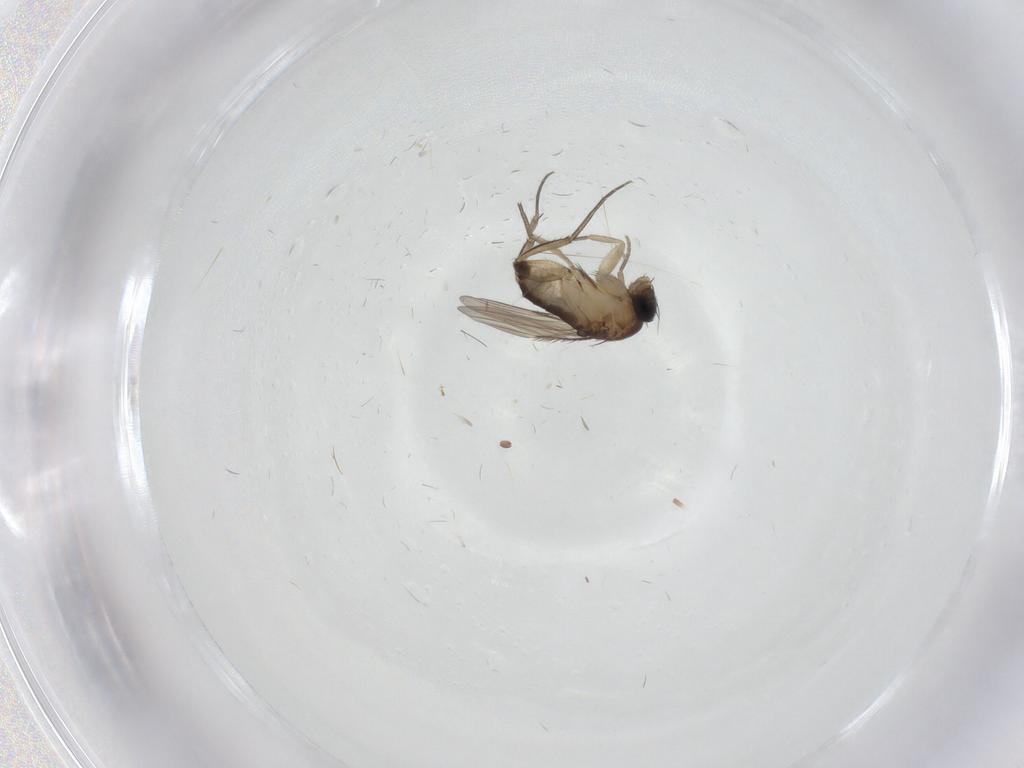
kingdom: Animalia
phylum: Arthropoda
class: Insecta
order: Diptera
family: Phoridae
